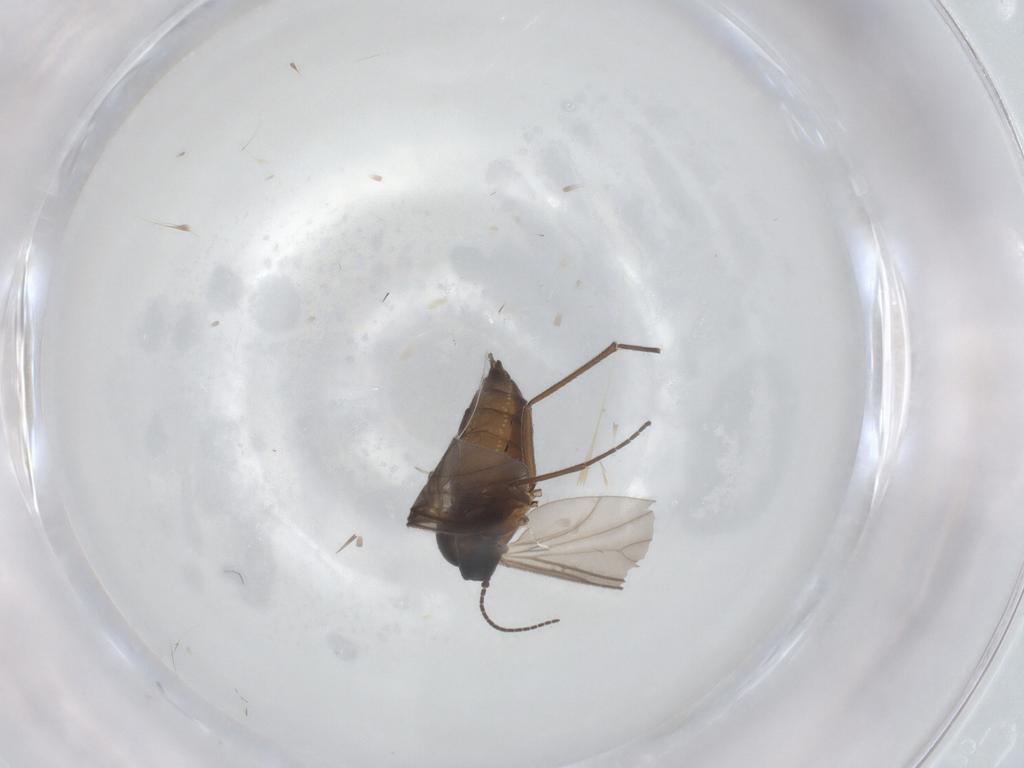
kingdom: Animalia
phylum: Arthropoda
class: Insecta
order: Diptera
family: Sciaridae
